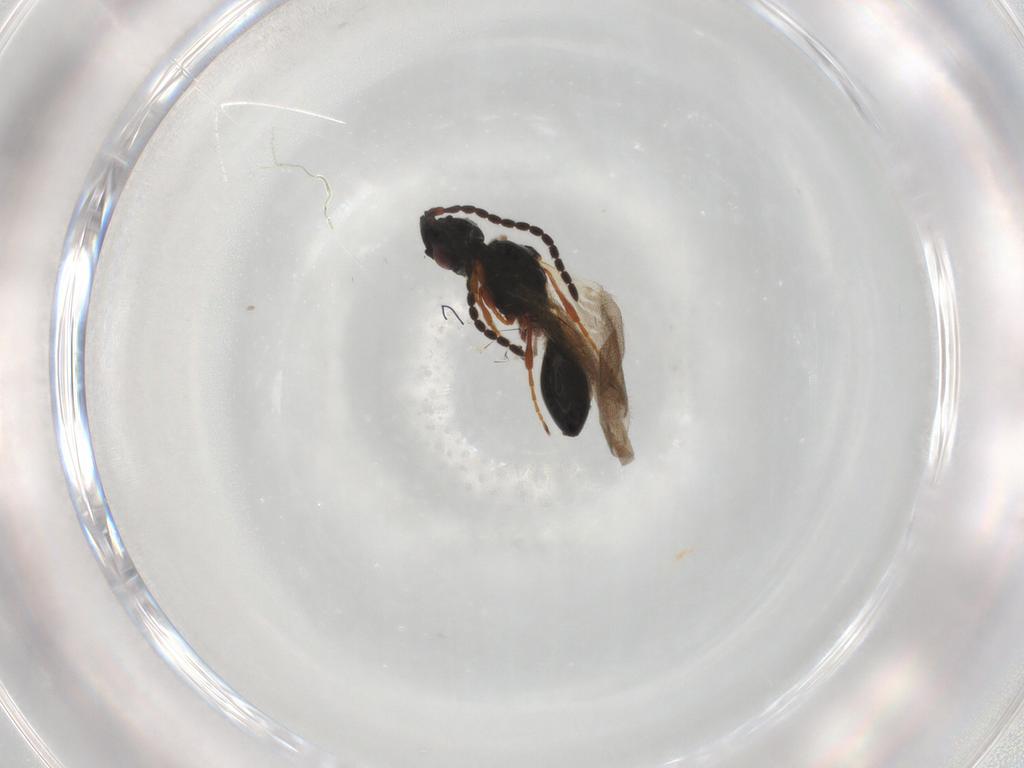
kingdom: Animalia
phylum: Arthropoda
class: Insecta
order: Hymenoptera
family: Diapriidae
